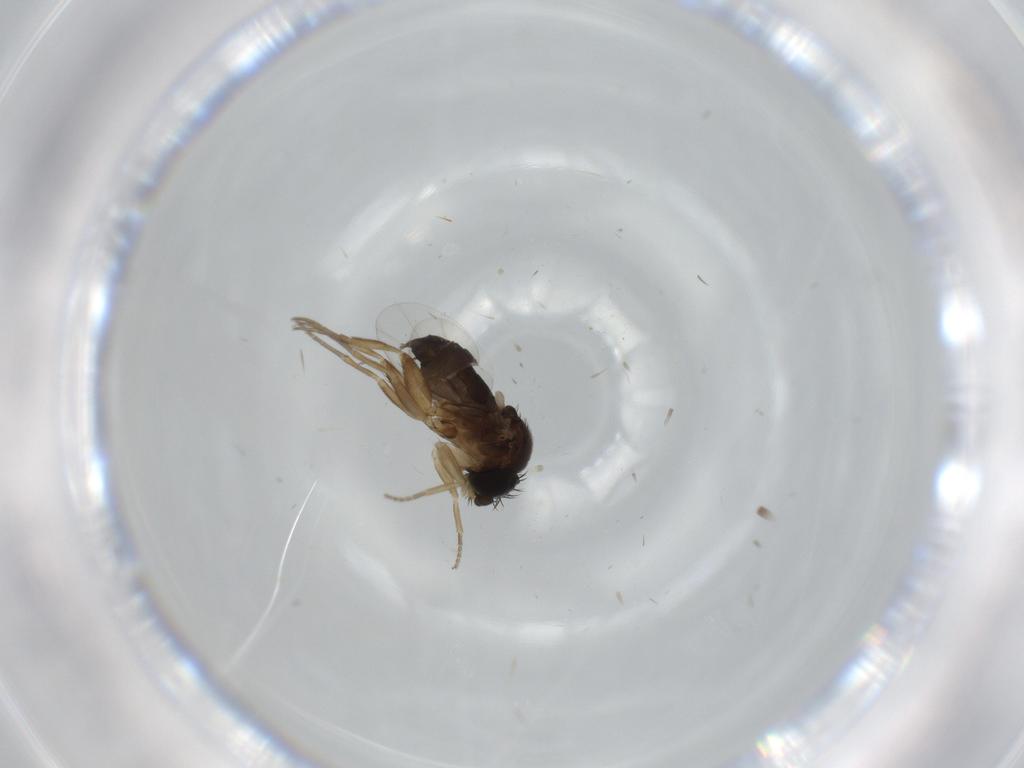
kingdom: Animalia
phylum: Arthropoda
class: Insecta
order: Diptera
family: Phoridae
